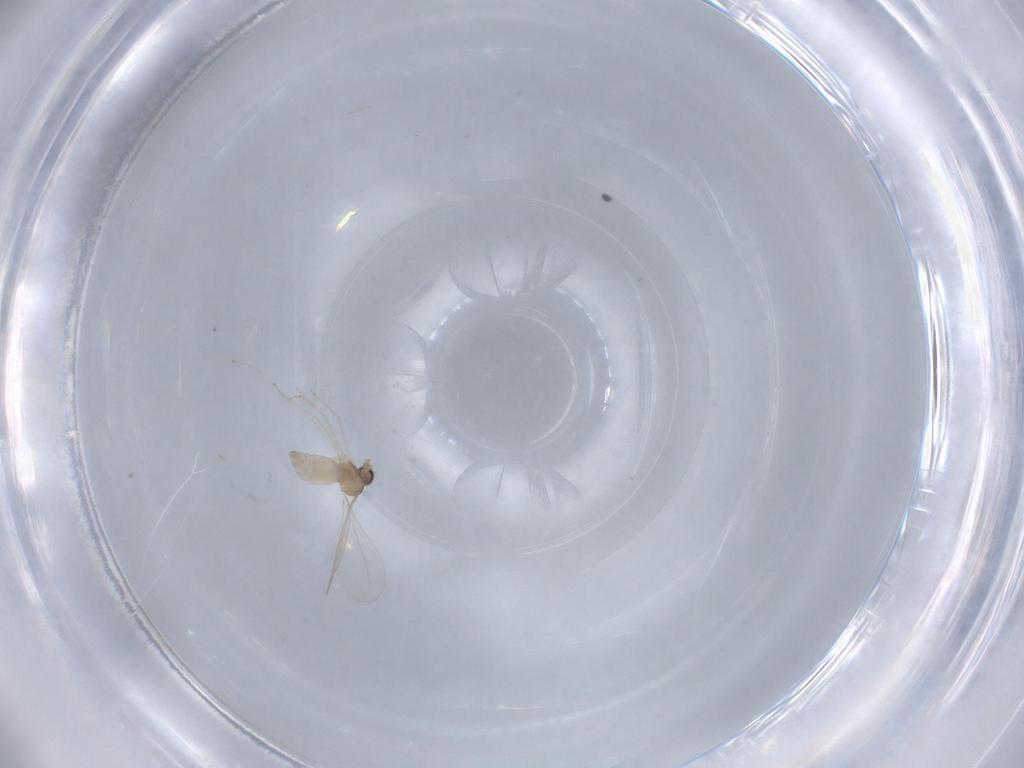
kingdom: Animalia
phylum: Arthropoda
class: Insecta
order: Diptera
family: Cecidomyiidae
